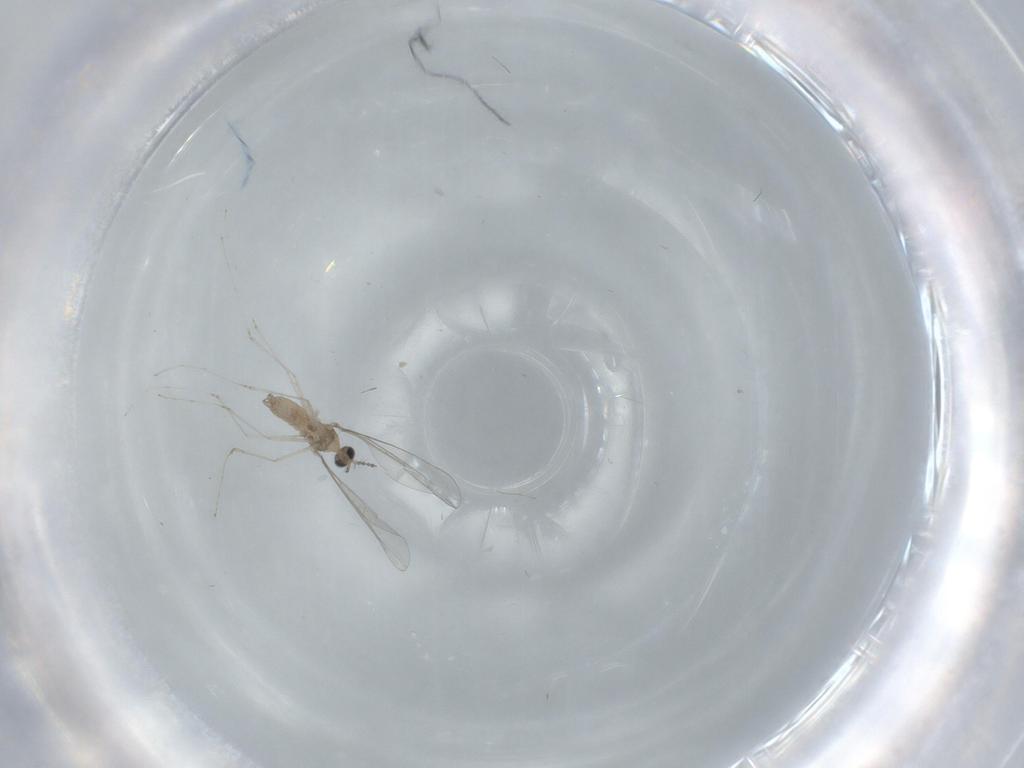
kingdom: Animalia
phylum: Arthropoda
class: Insecta
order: Diptera
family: Cecidomyiidae
